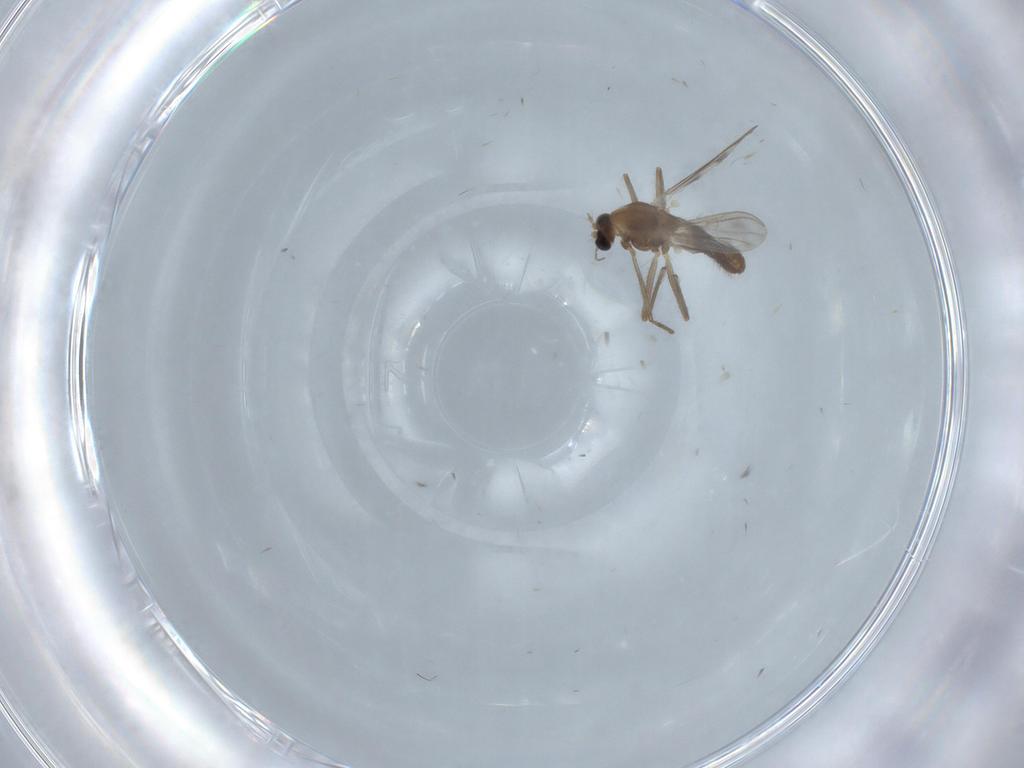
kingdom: Animalia
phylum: Arthropoda
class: Insecta
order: Diptera
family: Chironomidae
